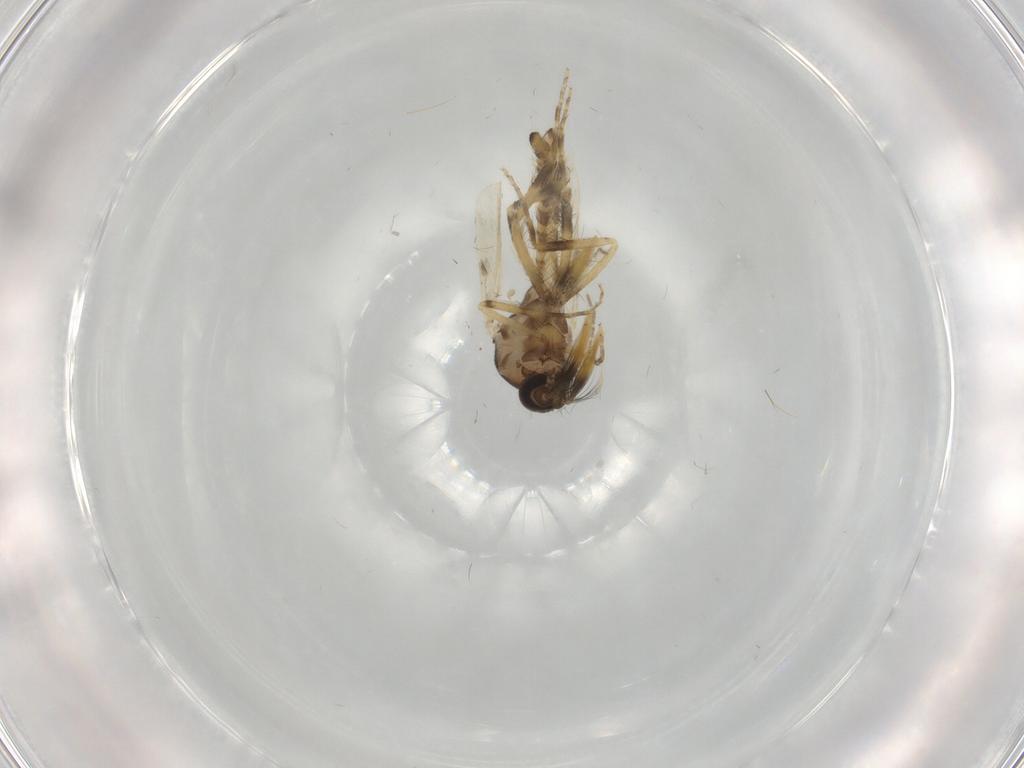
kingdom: Animalia
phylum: Arthropoda
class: Insecta
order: Diptera
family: Ceratopogonidae
